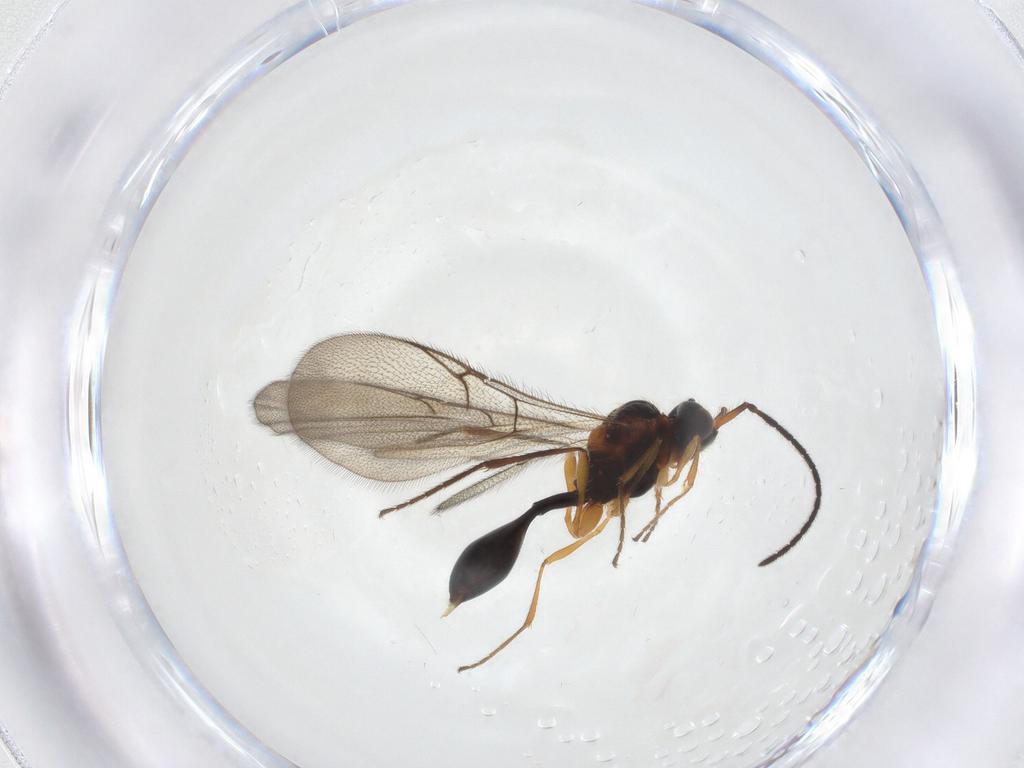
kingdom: Animalia
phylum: Arthropoda
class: Insecta
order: Hymenoptera
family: Diapriidae
